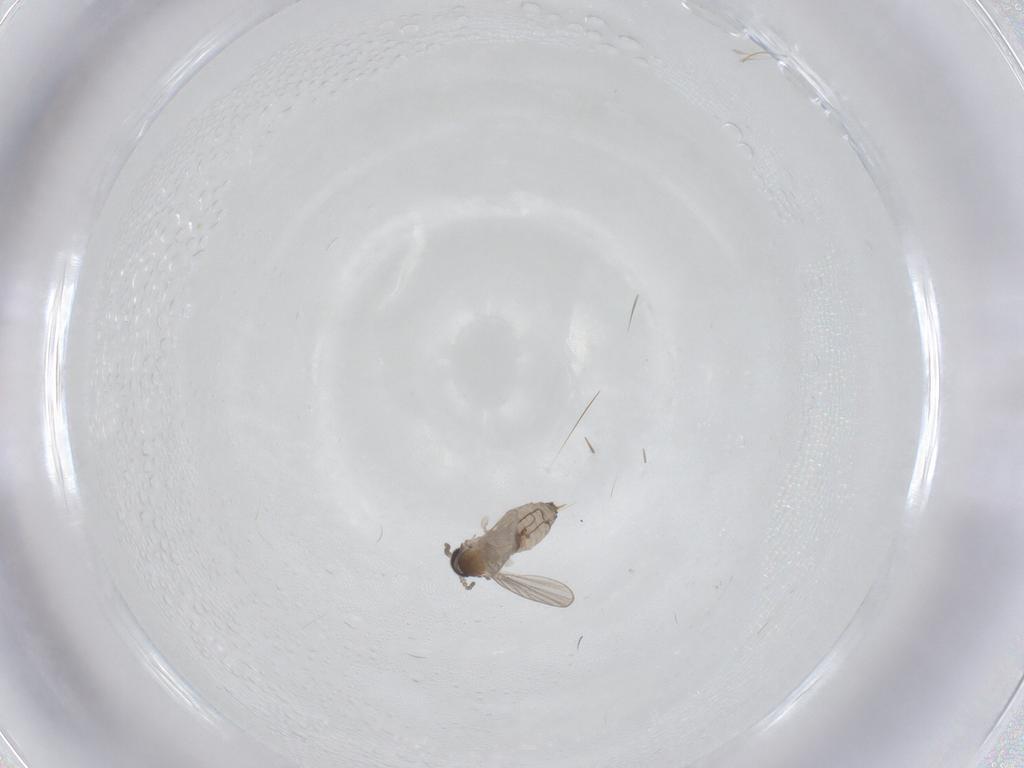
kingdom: Animalia
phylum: Arthropoda
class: Insecta
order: Diptera
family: Psychodidae
